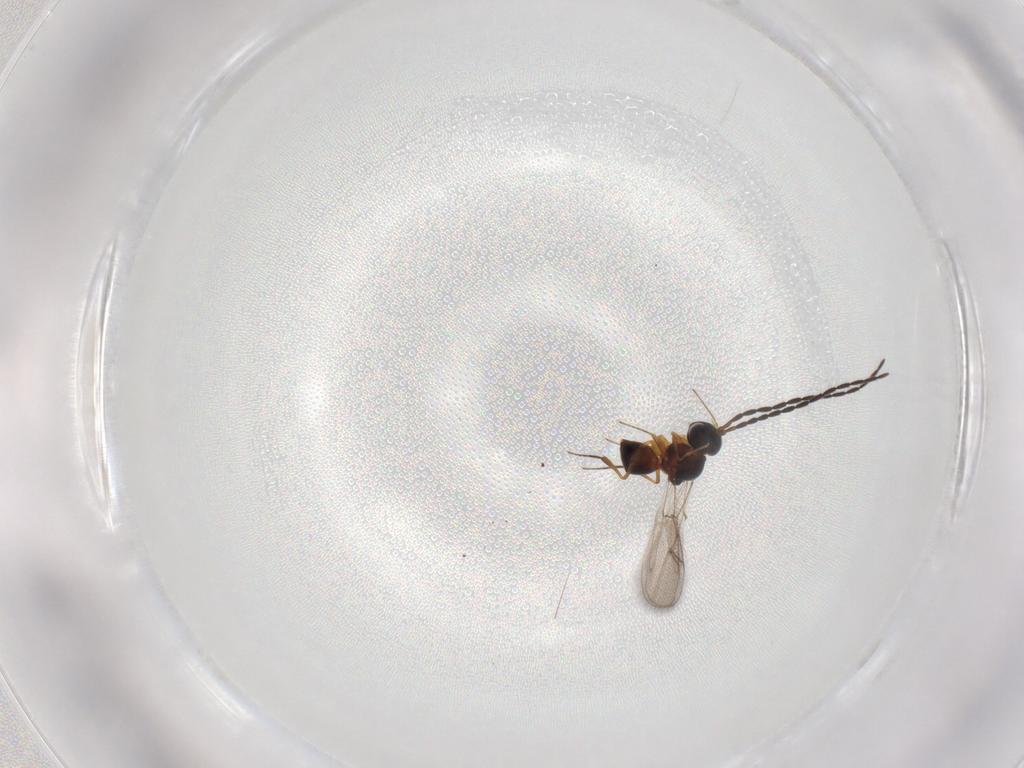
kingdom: Animalia
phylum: Arthropoda
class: Insecta
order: Hymenoptera
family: Figitidae
